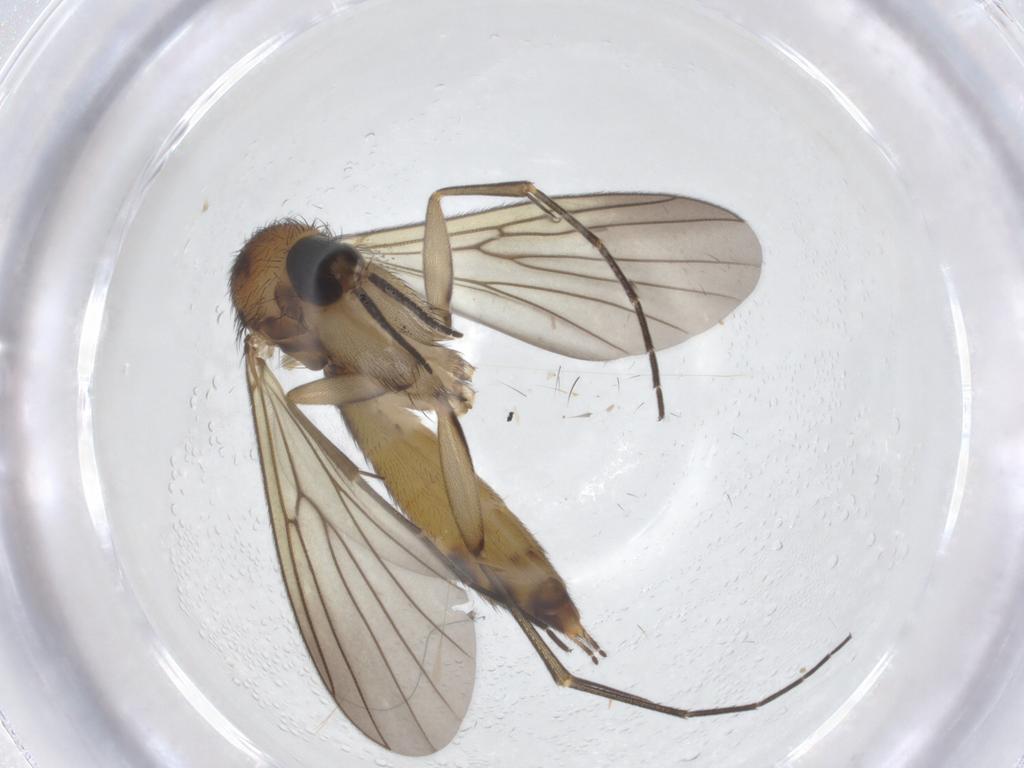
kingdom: Animalia
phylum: Arthropoda
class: Insecta
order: Diptera
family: Mycetophilidae
